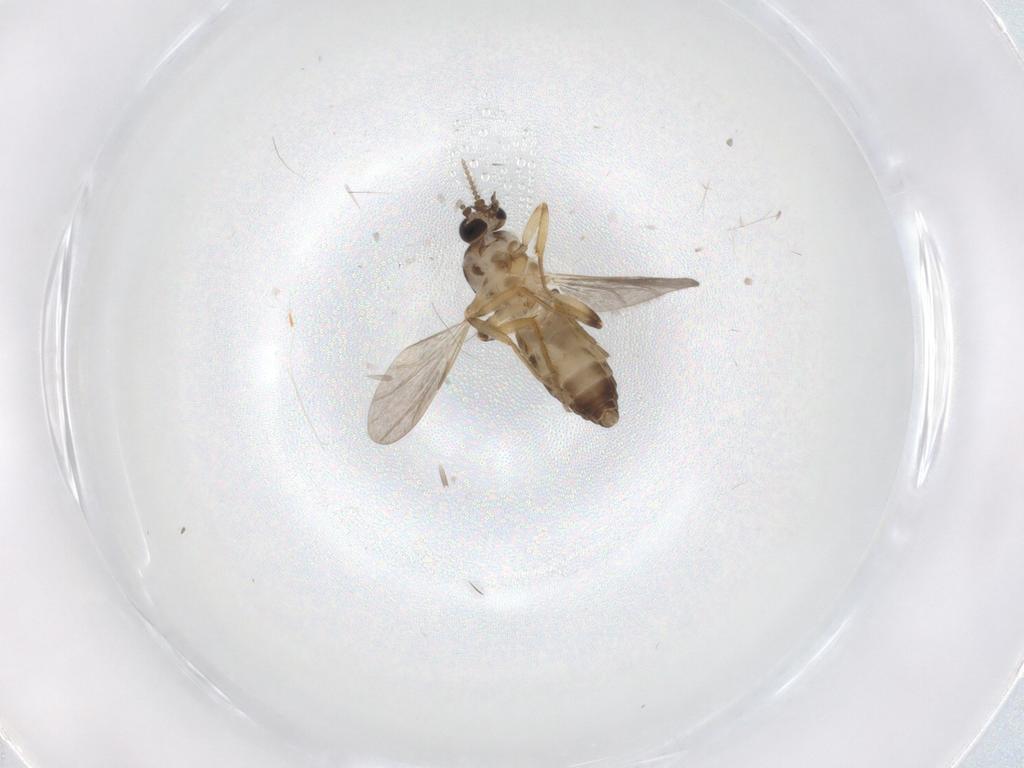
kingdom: Animalia
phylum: Arthropoda
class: Insecta
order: Diptera
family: Ceratopogonidae
